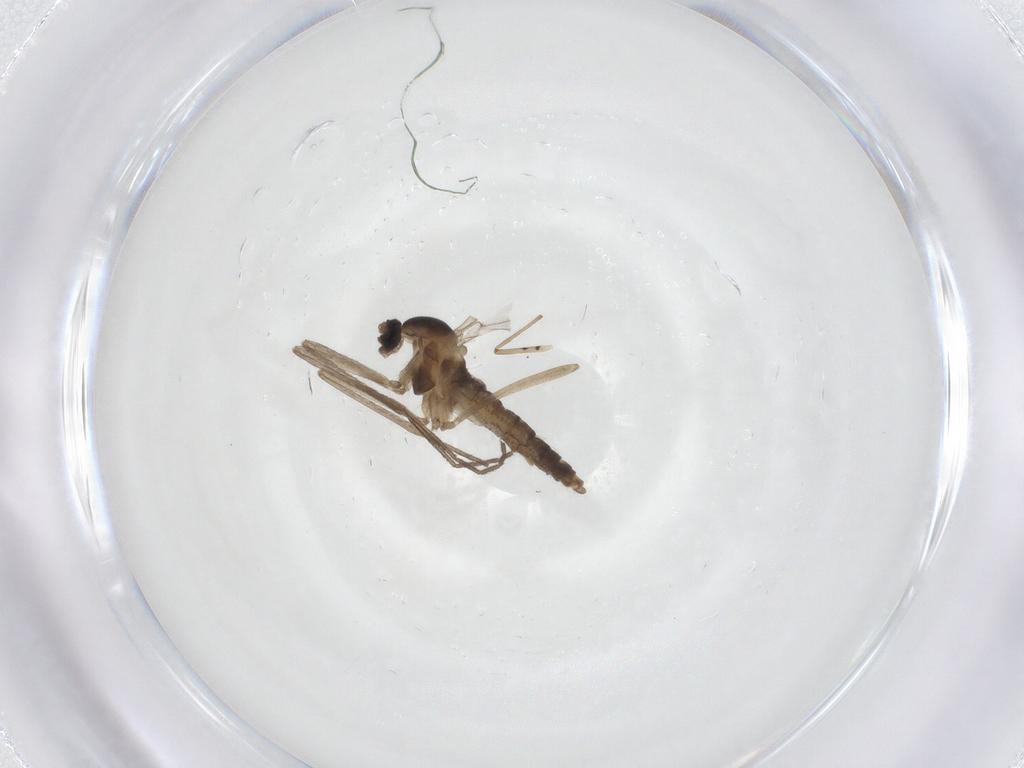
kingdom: Animalia
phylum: Arthropoda
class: Insecta
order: Diptera
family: Cecidomyiidae
